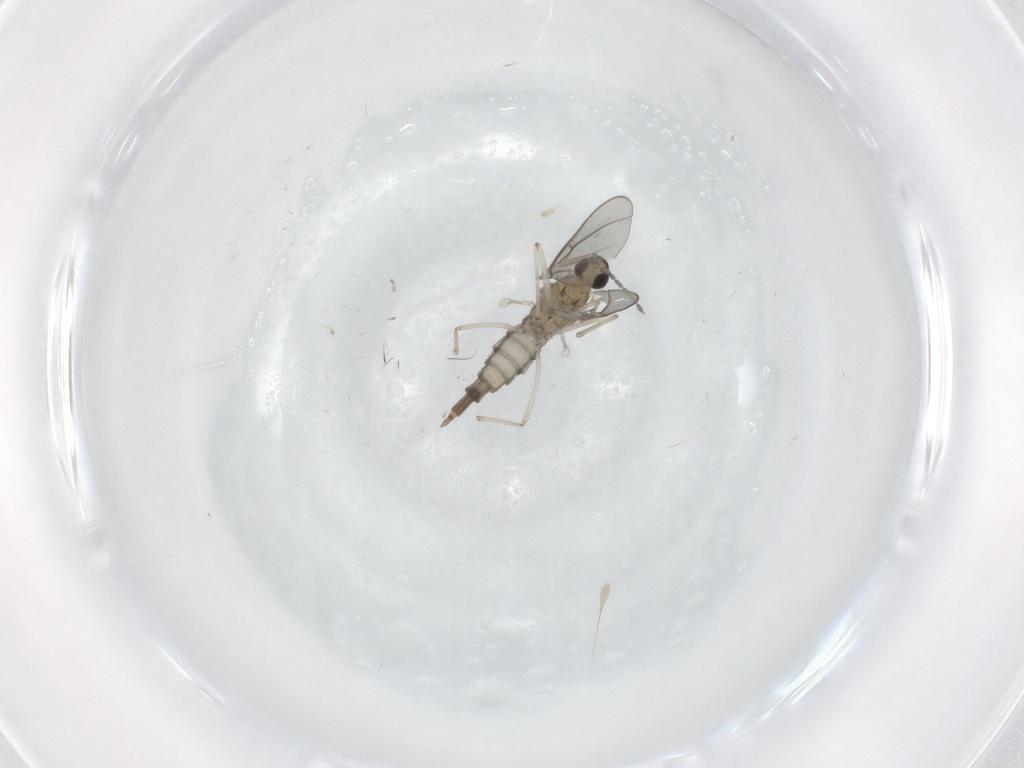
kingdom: Animalia
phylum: Arthropoda
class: Insecta
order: Diptera
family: Cecidomyiidae
